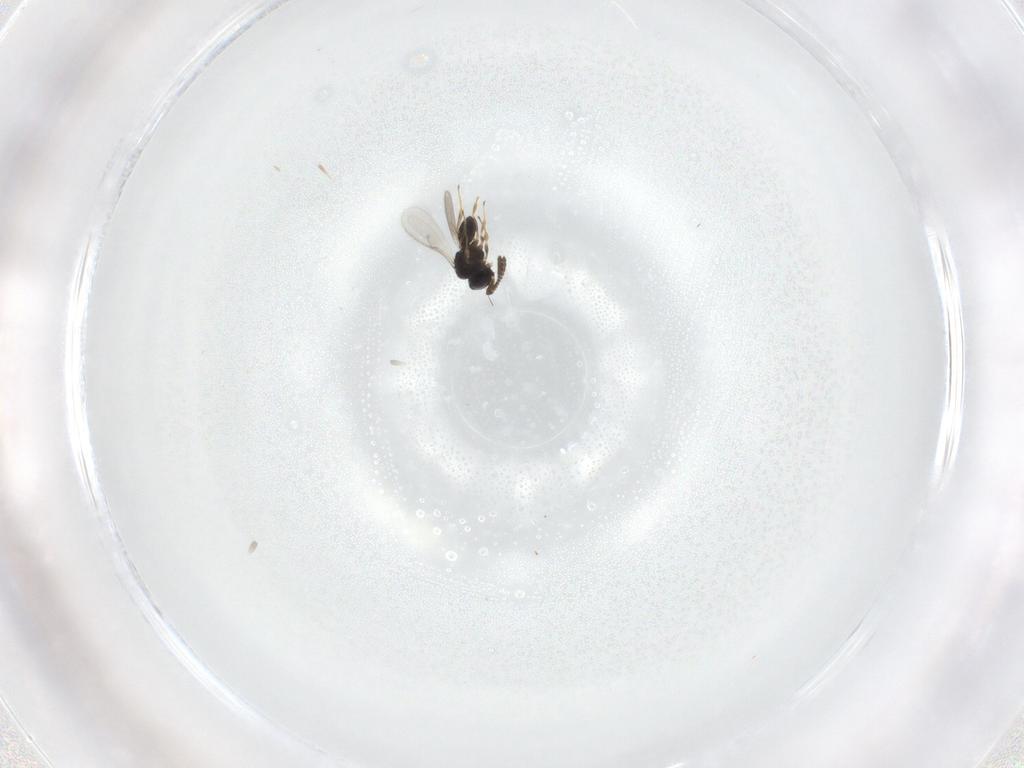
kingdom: Animalia
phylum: Arthropoda
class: Insecta
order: Hymenoptera
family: Scelionidae
